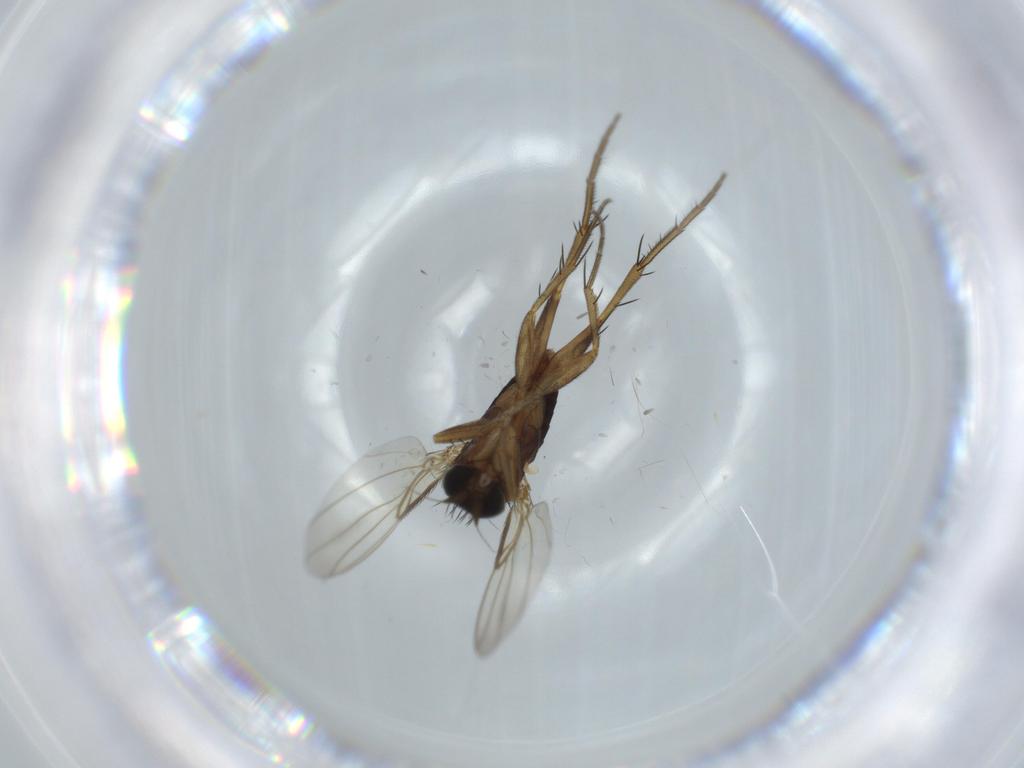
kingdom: Animalia
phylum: Arthropoda
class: Insecta
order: Diptera
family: Phoridae
